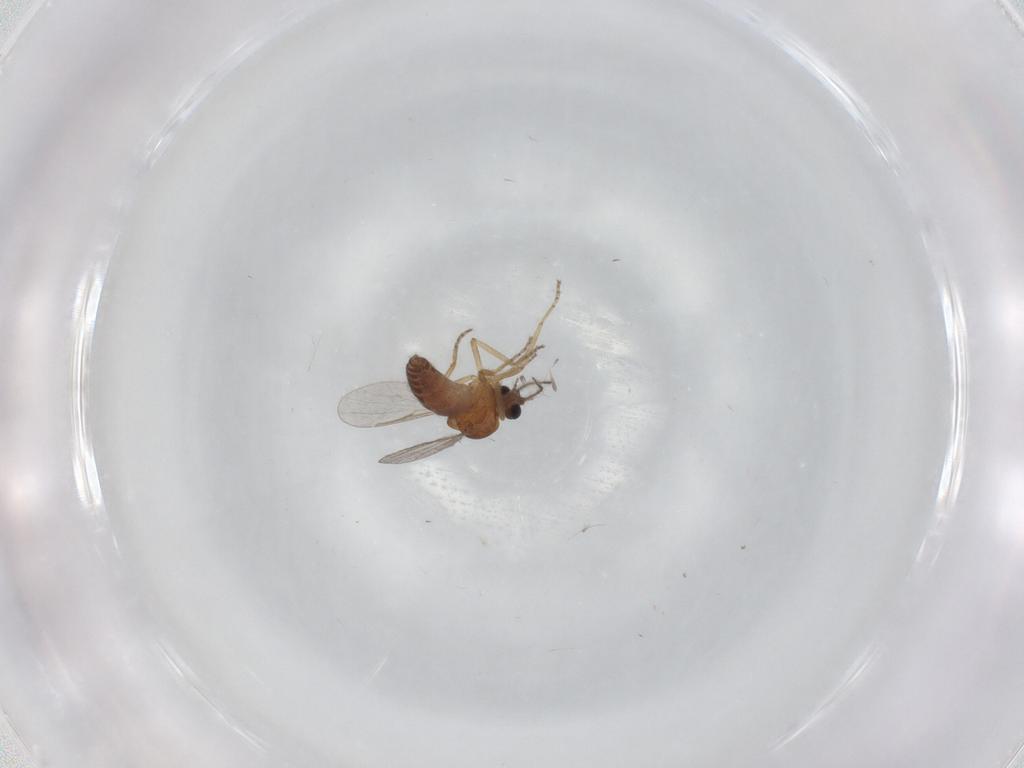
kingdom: Animalia
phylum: Arthropoda
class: Insecta
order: Diptera
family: Ceratopogonidae
